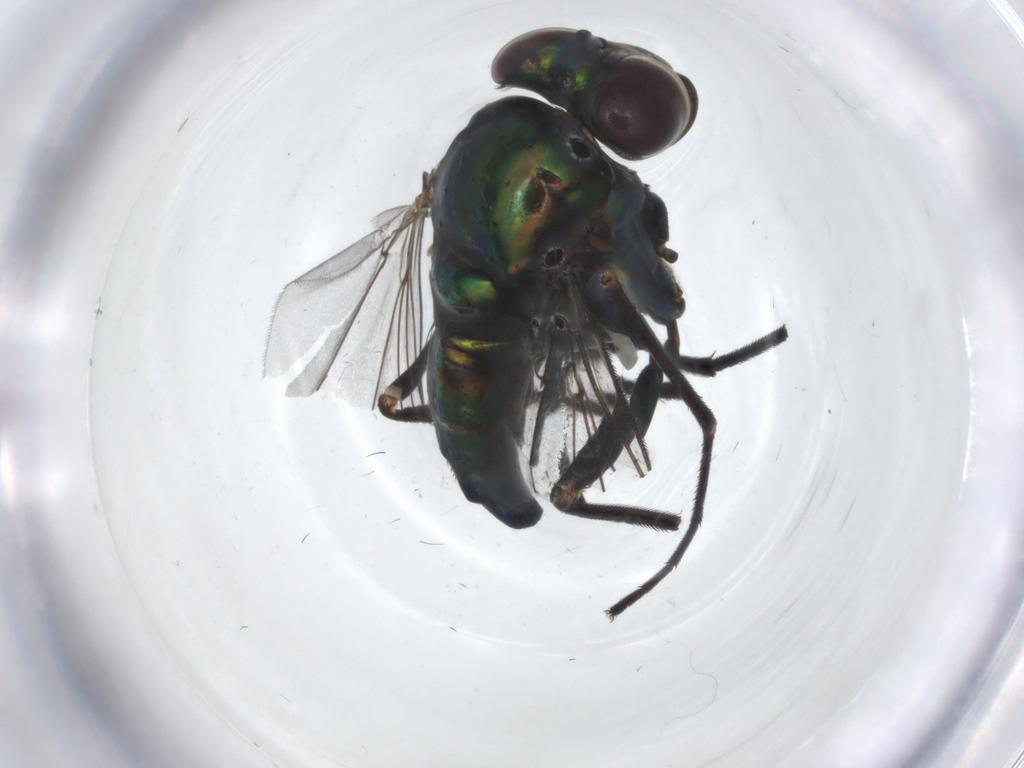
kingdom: Animalia
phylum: Arthropoda
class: Insecta
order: Diptera
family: Dolichopodidae
